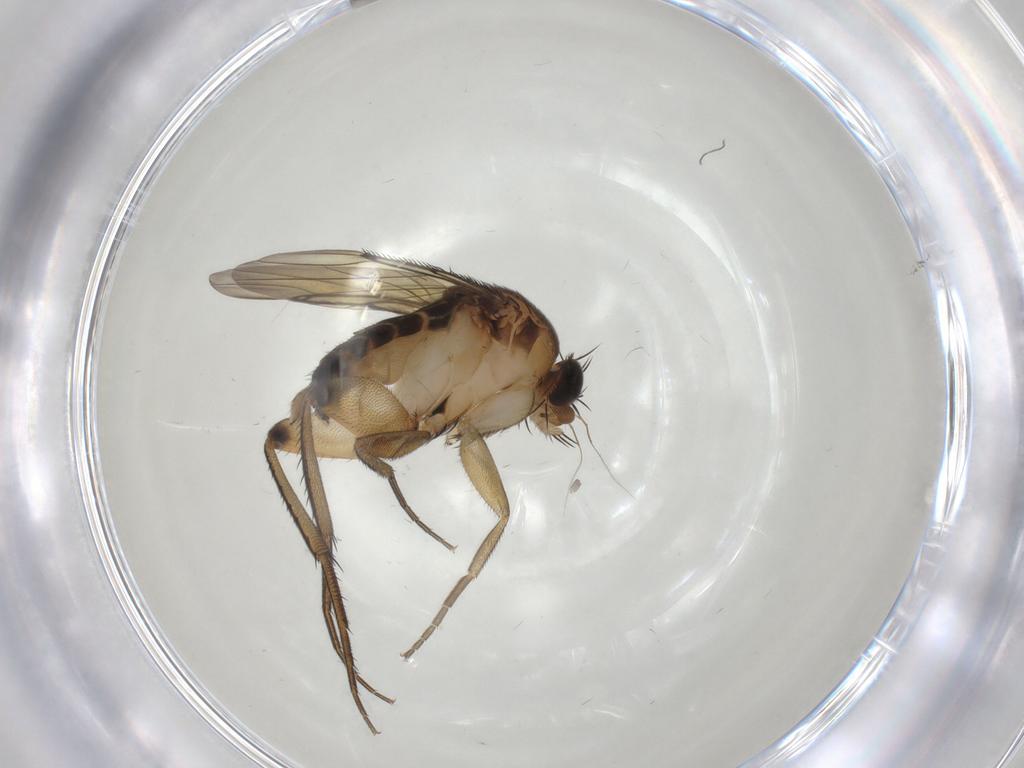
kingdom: Animalia
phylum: Arthropoda
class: Insecta
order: Diptera
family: Phoridae
